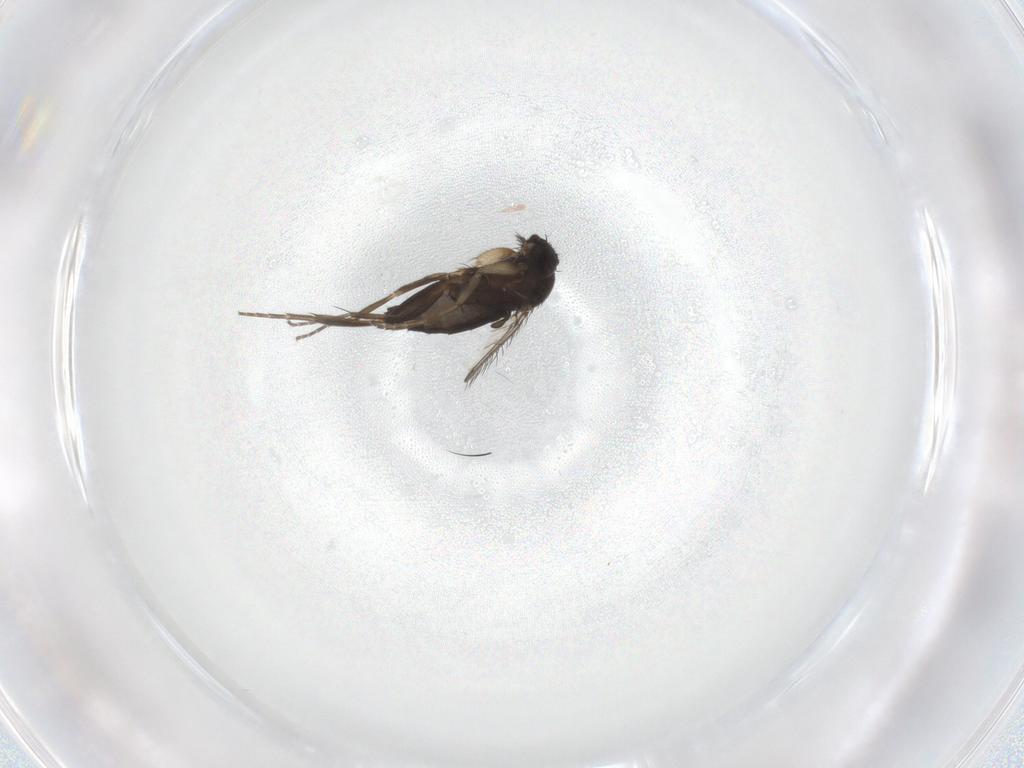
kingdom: Animalia
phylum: Arthropoda
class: Insecta
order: Diptera
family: Phoridae
